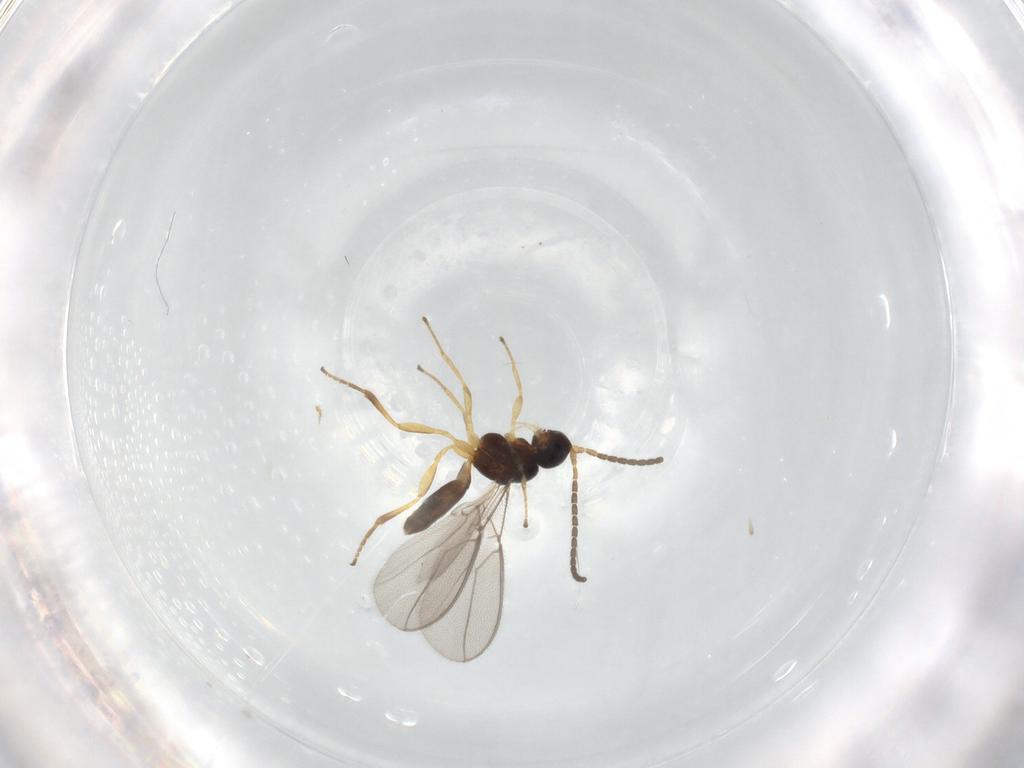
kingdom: Animalia
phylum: Arthropoda
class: Insecta
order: Hymenoptera
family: Braconidae
